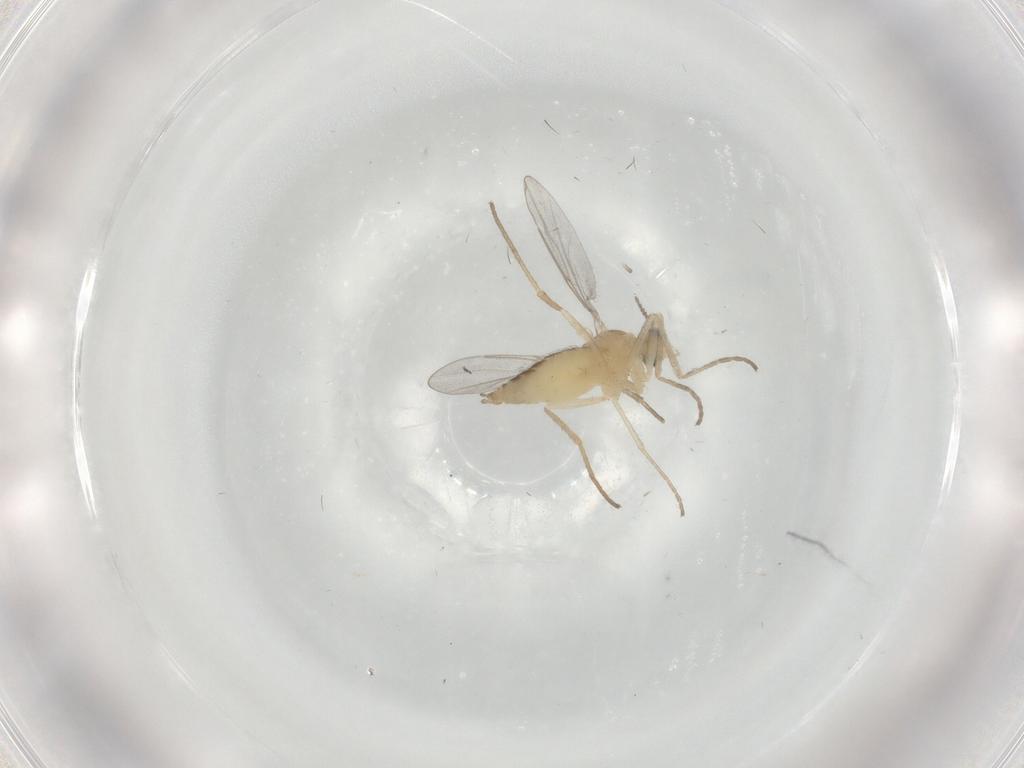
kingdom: Animalia
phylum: Arthropoda
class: Insecta
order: Diptera
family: Cecidomyiidae
